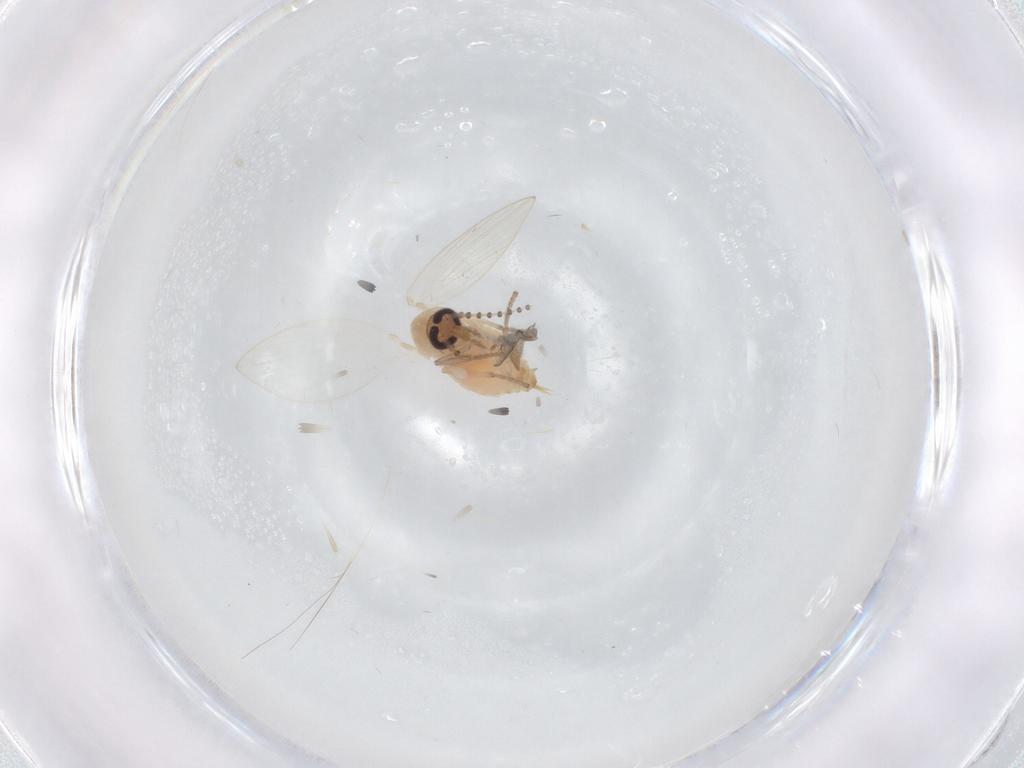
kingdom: Animalia
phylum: Arthropoda
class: Insecta
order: Diptera
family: Psychodidae
